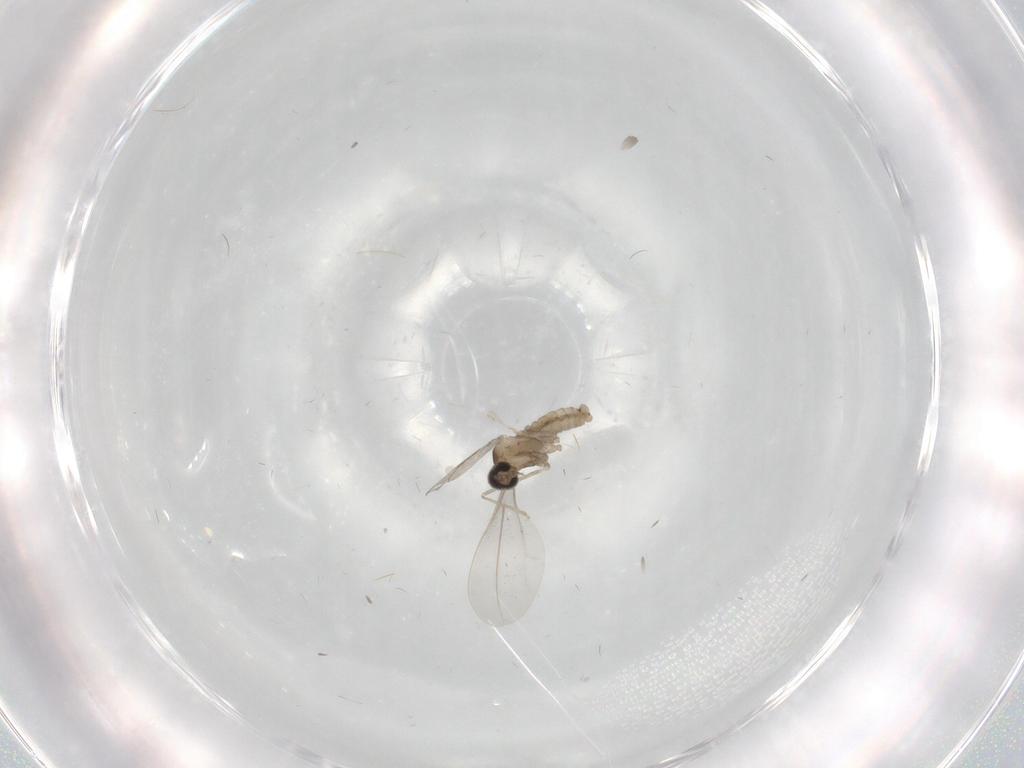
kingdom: Animalia
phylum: Arthropoda
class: Insecta
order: Diptera
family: Cecidomyiidae
